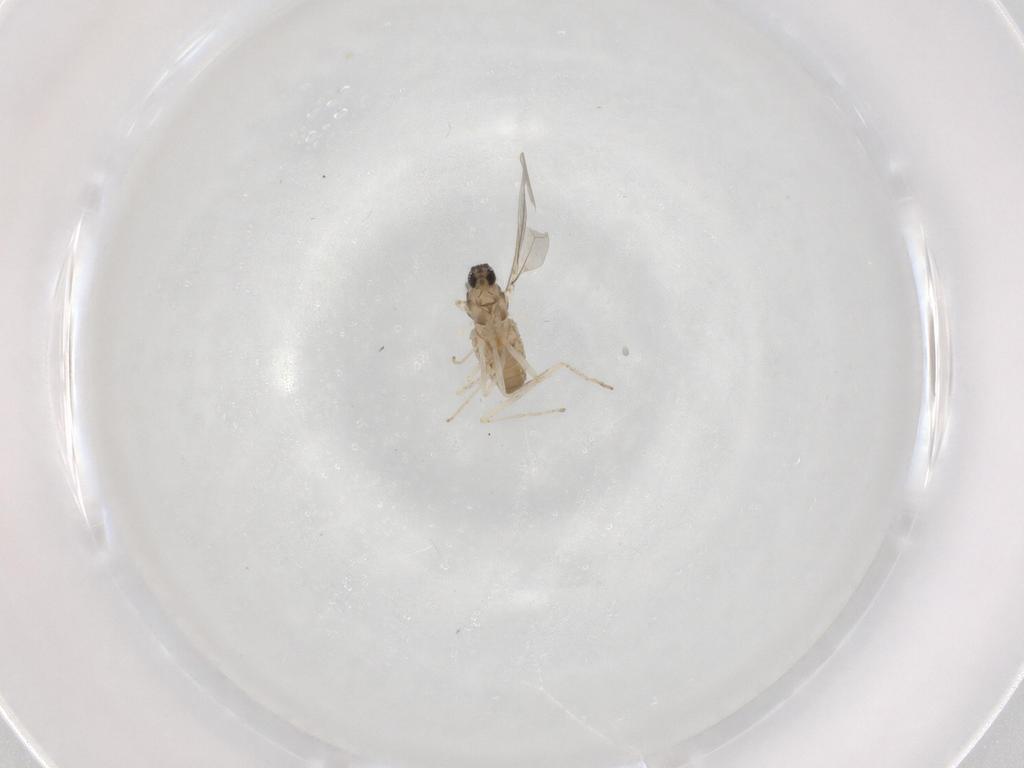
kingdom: Animalia
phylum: Arthropoda
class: Insecta
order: Diptera
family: Cecidomyiidae
